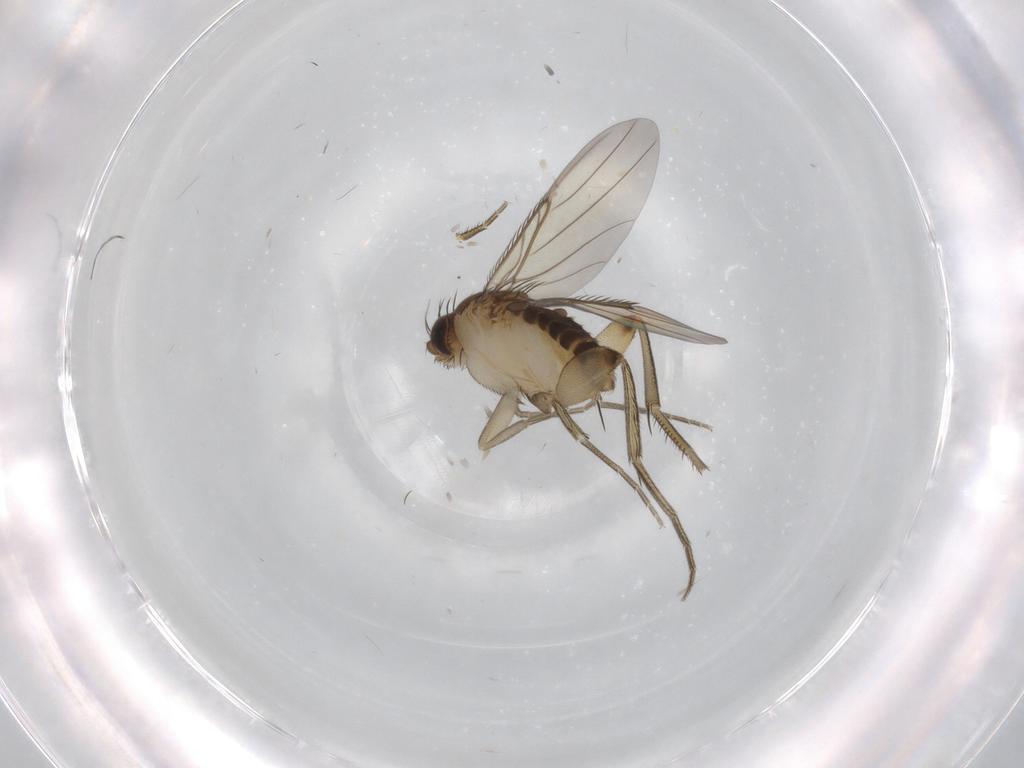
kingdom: Animalia
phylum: Arthropoda
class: Insecta
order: Diptera
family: Phoridae
